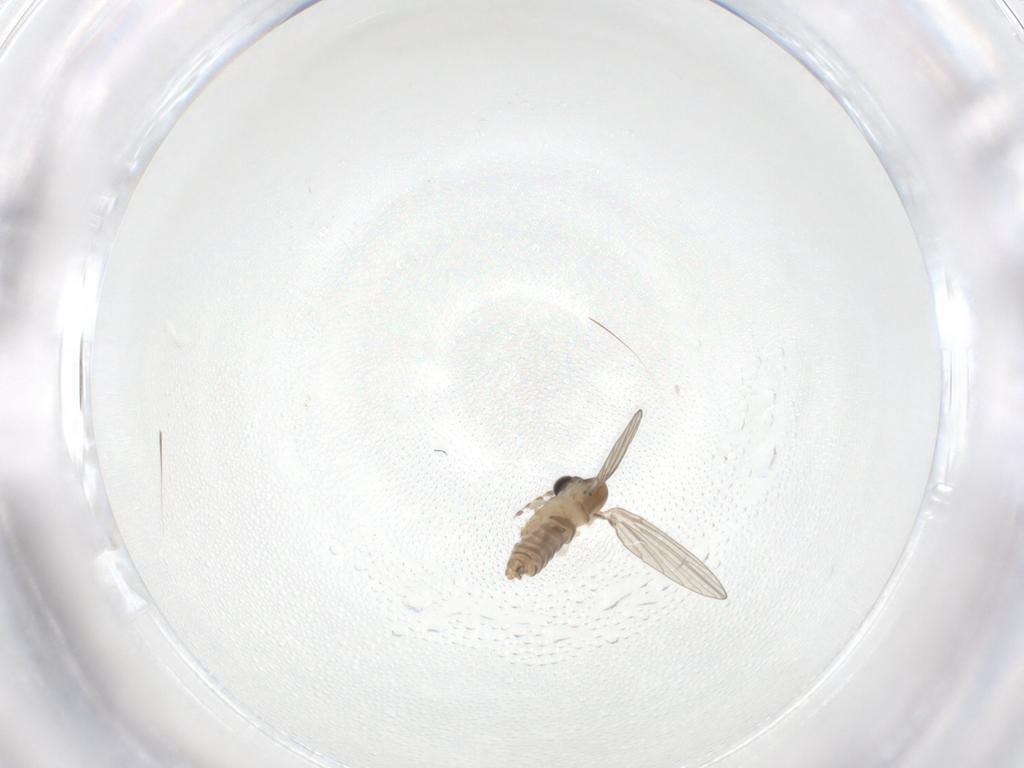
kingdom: Animalia
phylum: Arthropoda
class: Insecta
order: Diptera
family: Psychodidae
